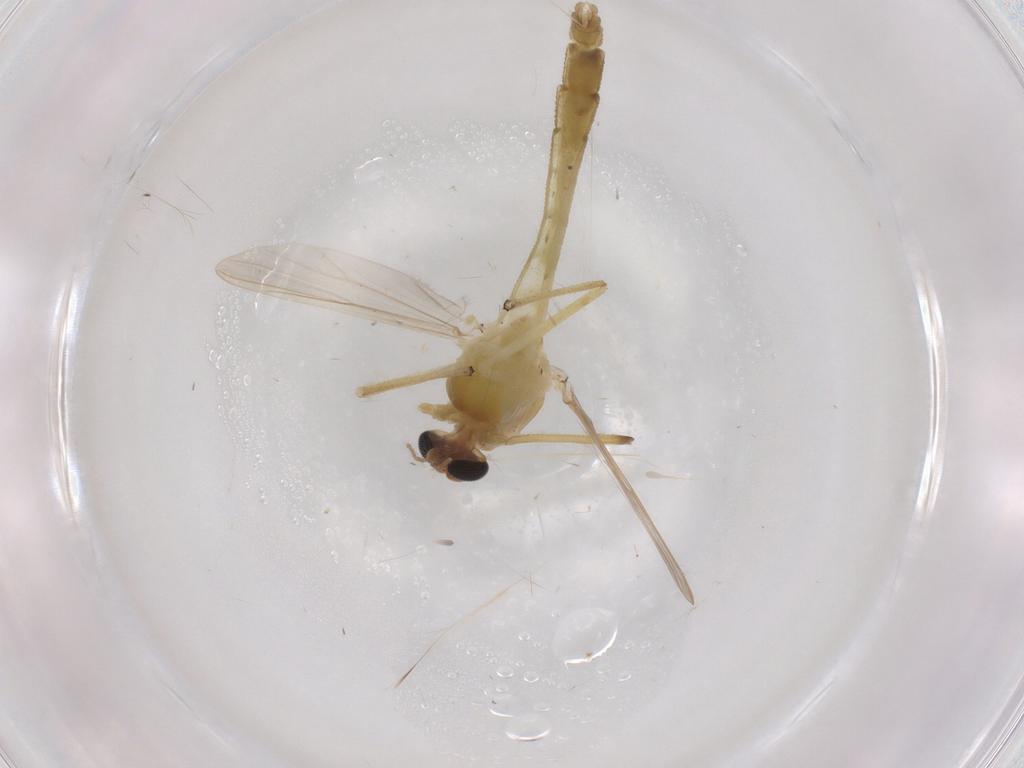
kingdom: Animalia
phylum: Arthropoda
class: Insecta
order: Diptera
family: Chironomidae
